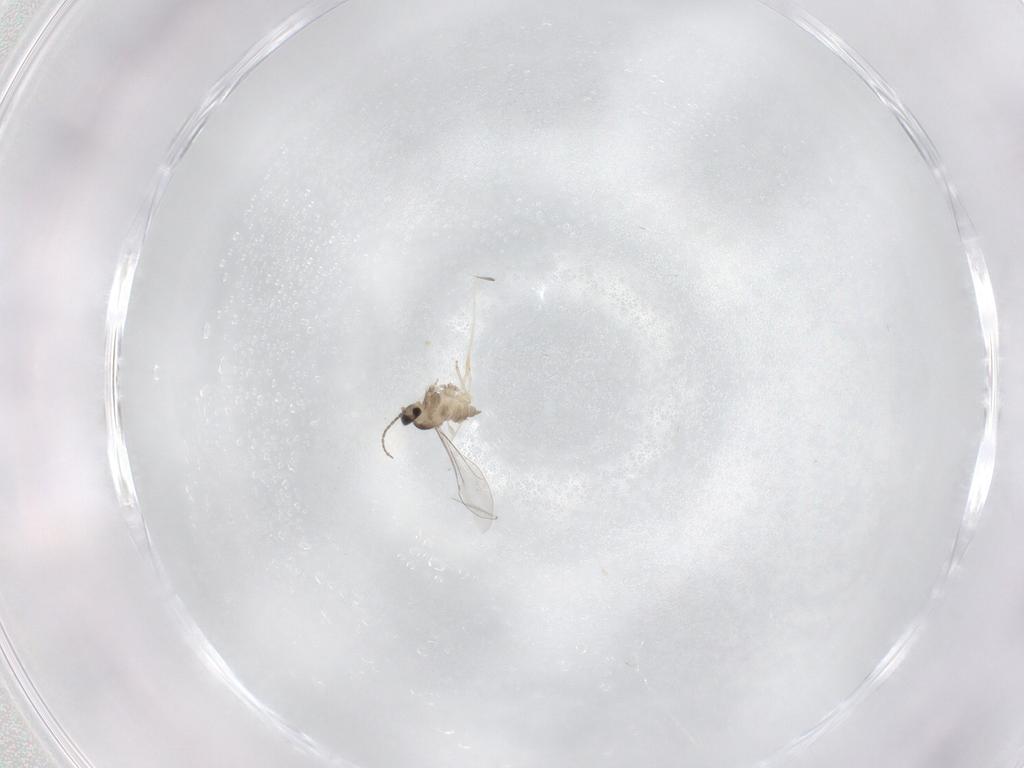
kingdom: Animalia
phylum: Arthropoda
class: Insecta
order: Diptera
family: Cecidomyiidae
